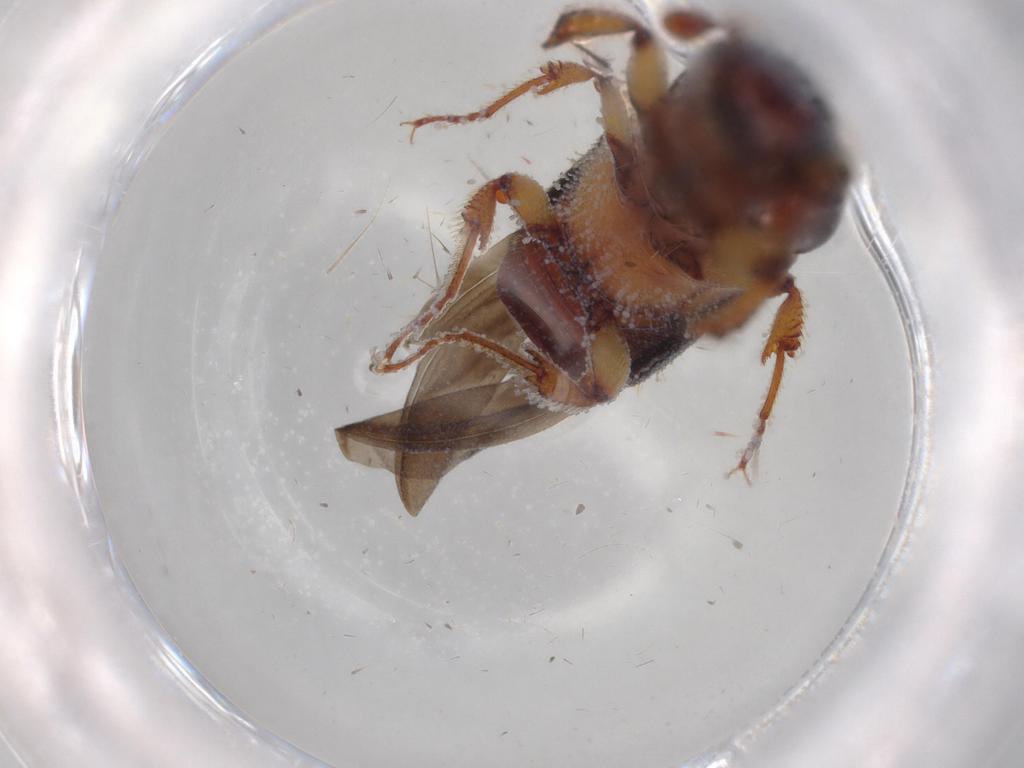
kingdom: Animalia
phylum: Arthropoda
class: Insecta
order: Coleoptera
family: Curculionidae
